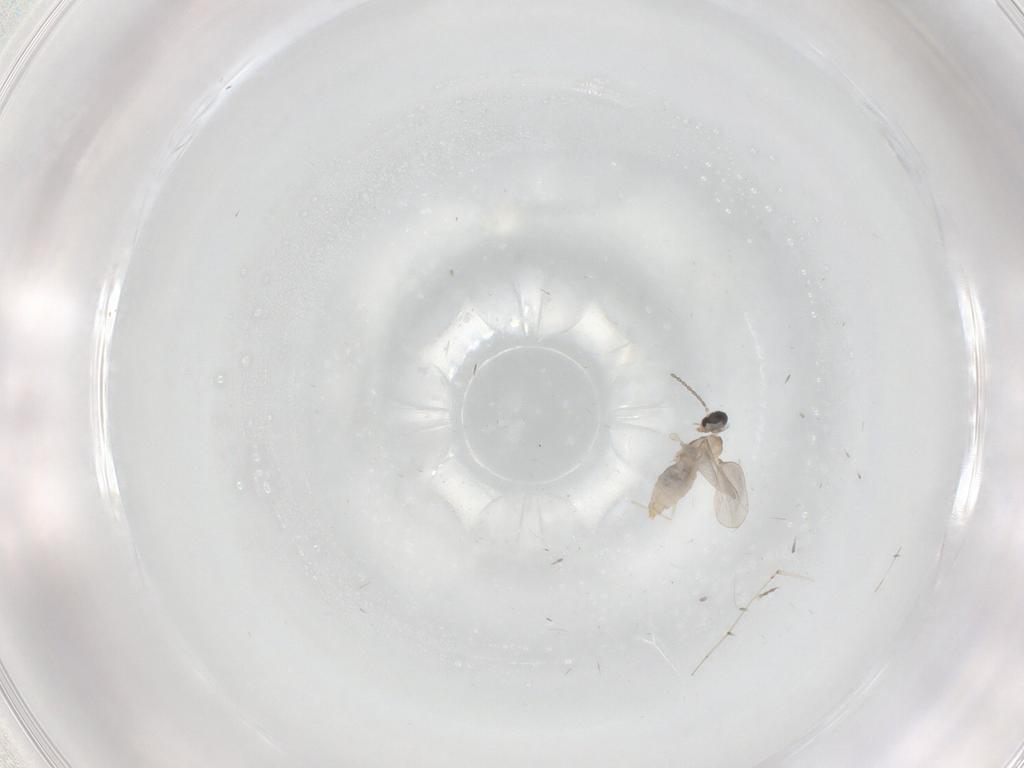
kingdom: Animalia
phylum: Arthropoda
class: Insecta
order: Diptera
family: Cecidomyiidae
